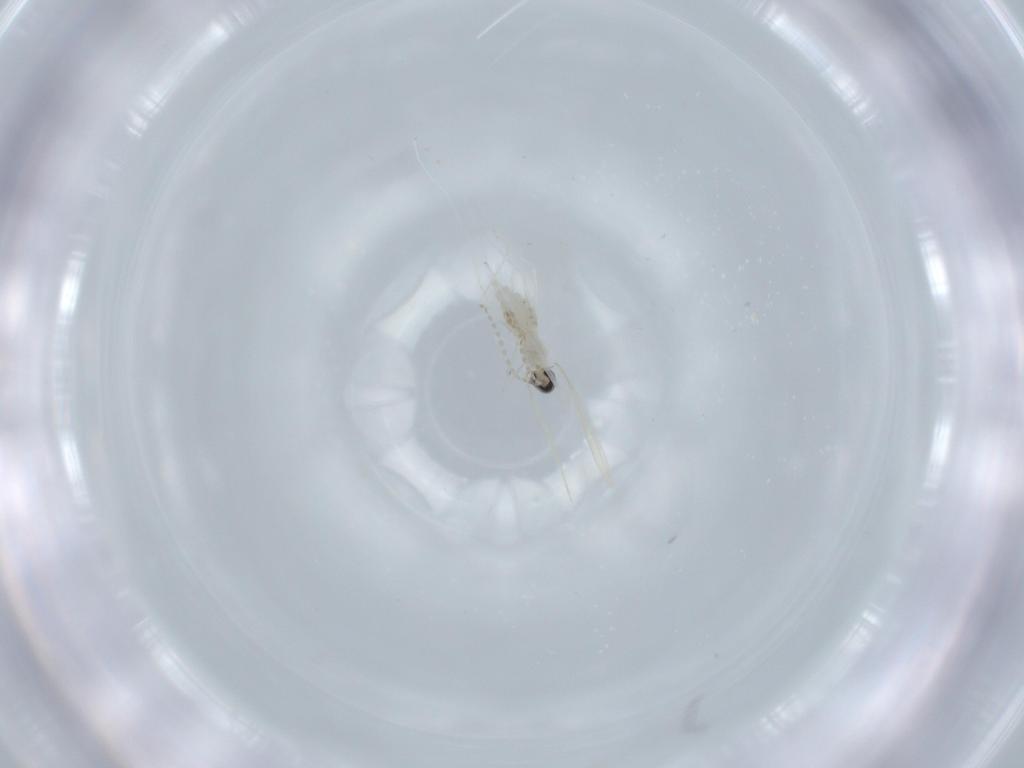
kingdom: Animalia
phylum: Arthropoda
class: Insecta
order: Diptera
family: Cecidomyiidae
